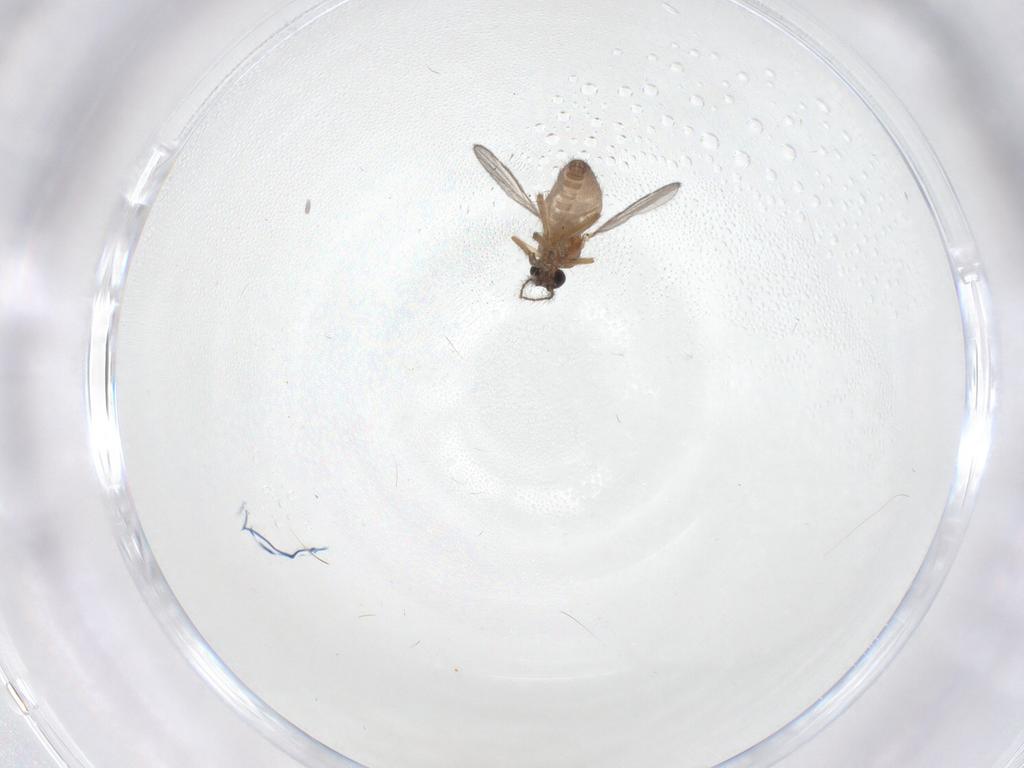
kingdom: Animalia
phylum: Arthropoda
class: Insecta
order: Diptera
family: Ceratopogonidae
